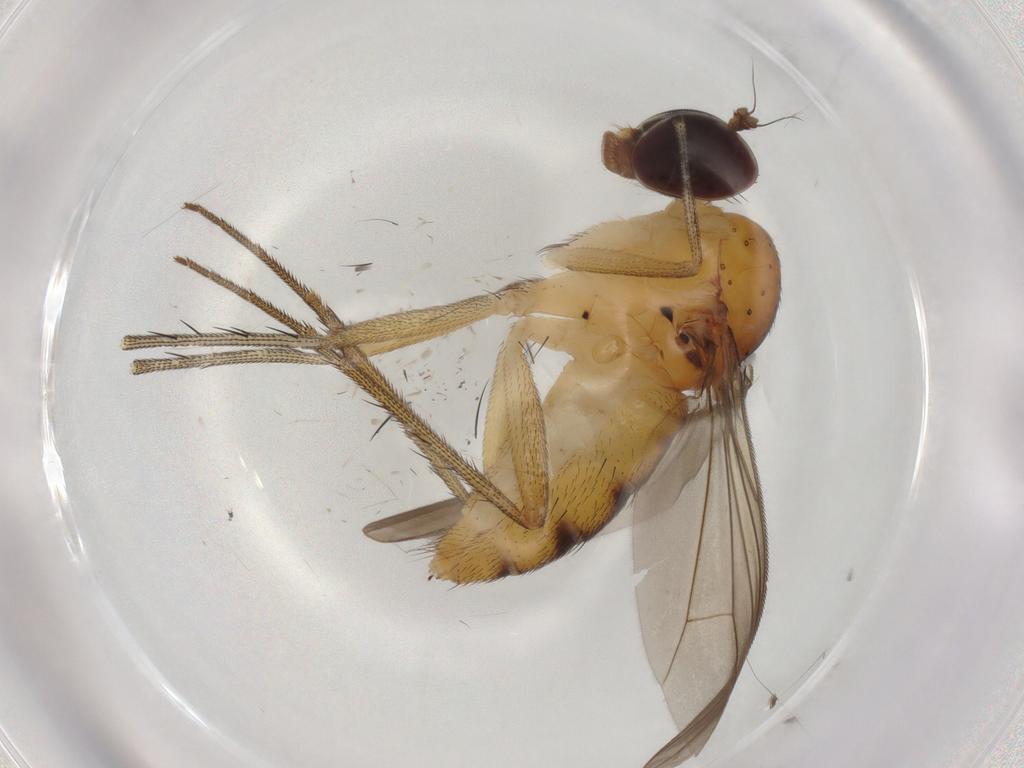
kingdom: Animalia
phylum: Arthropoda
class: Insecta
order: Diptera
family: Dolichopodidae
